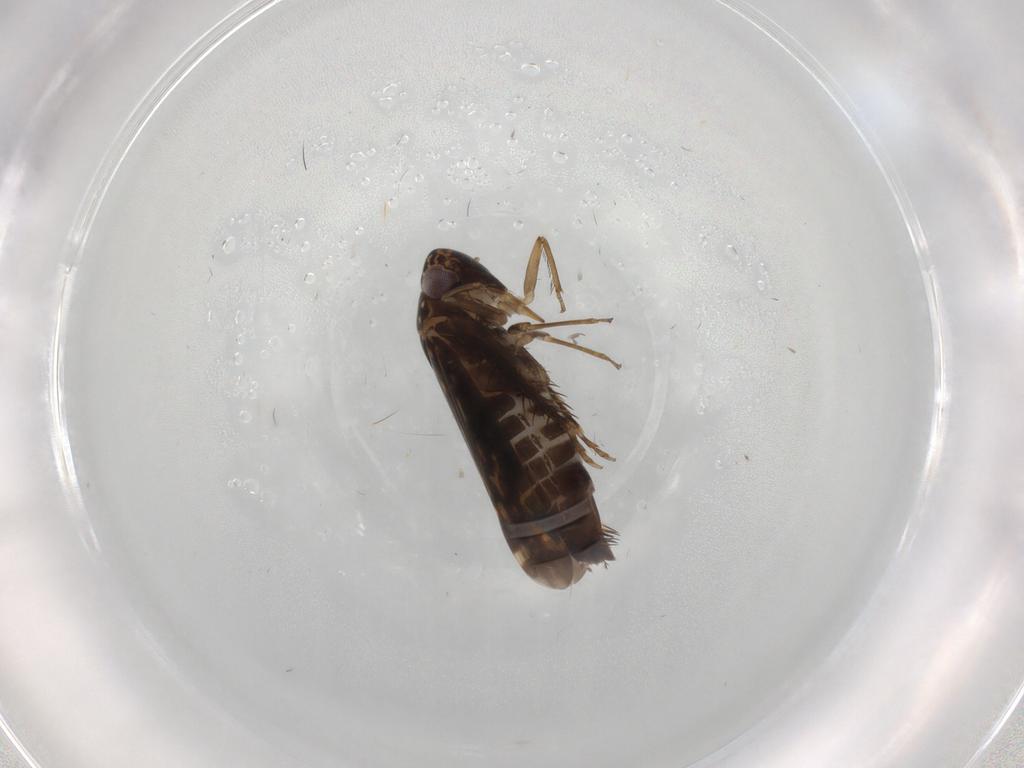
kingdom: Animalia
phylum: Arthropoda
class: Insecta
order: Hemiptera
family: Cicadellidae
